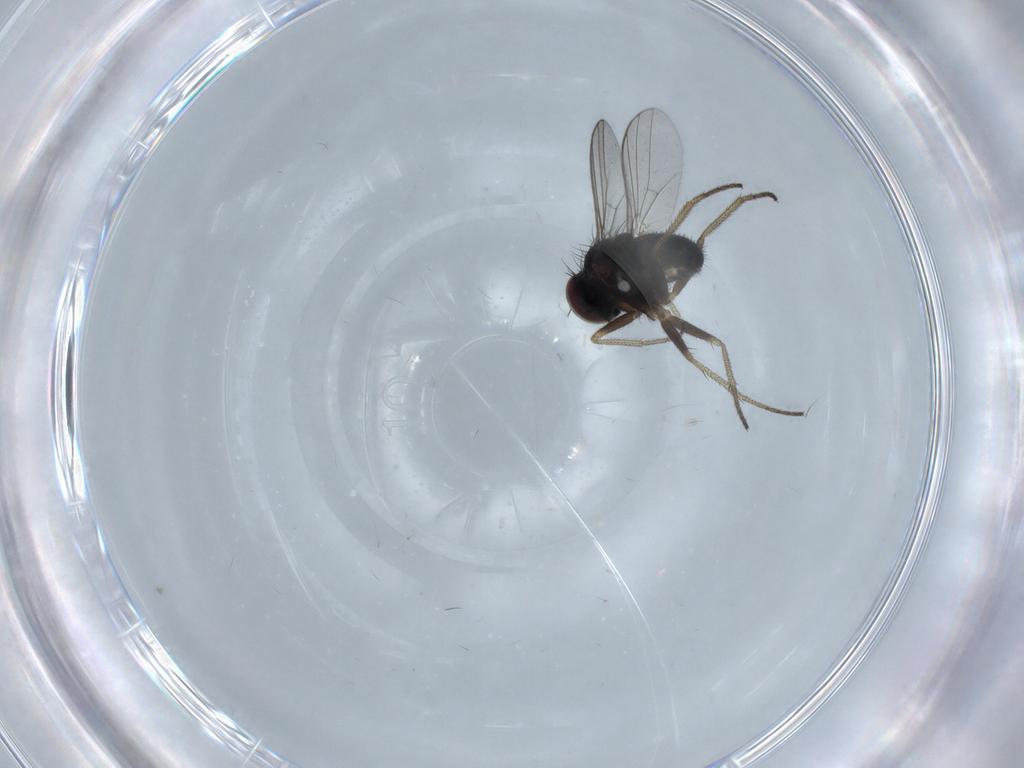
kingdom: Animalia
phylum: Arthropoda
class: Insecta
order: Diptera
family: Dolichopodidae
